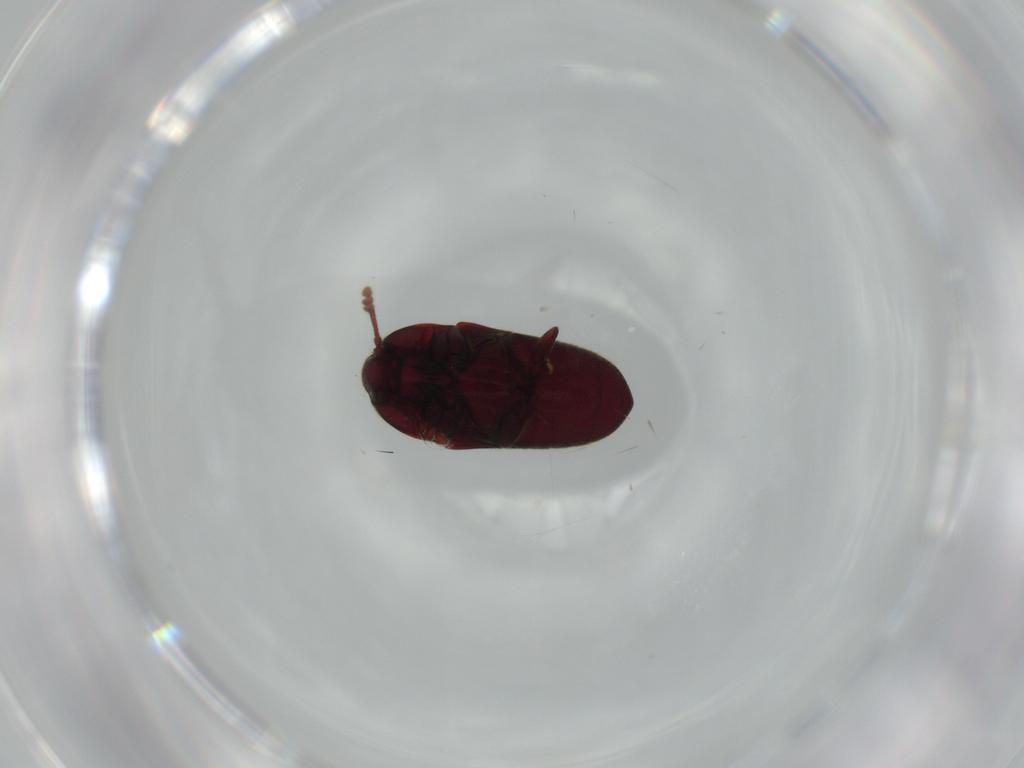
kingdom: Animalia
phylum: Arthropoda
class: Insecta
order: Coleoptera
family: Throscidae
